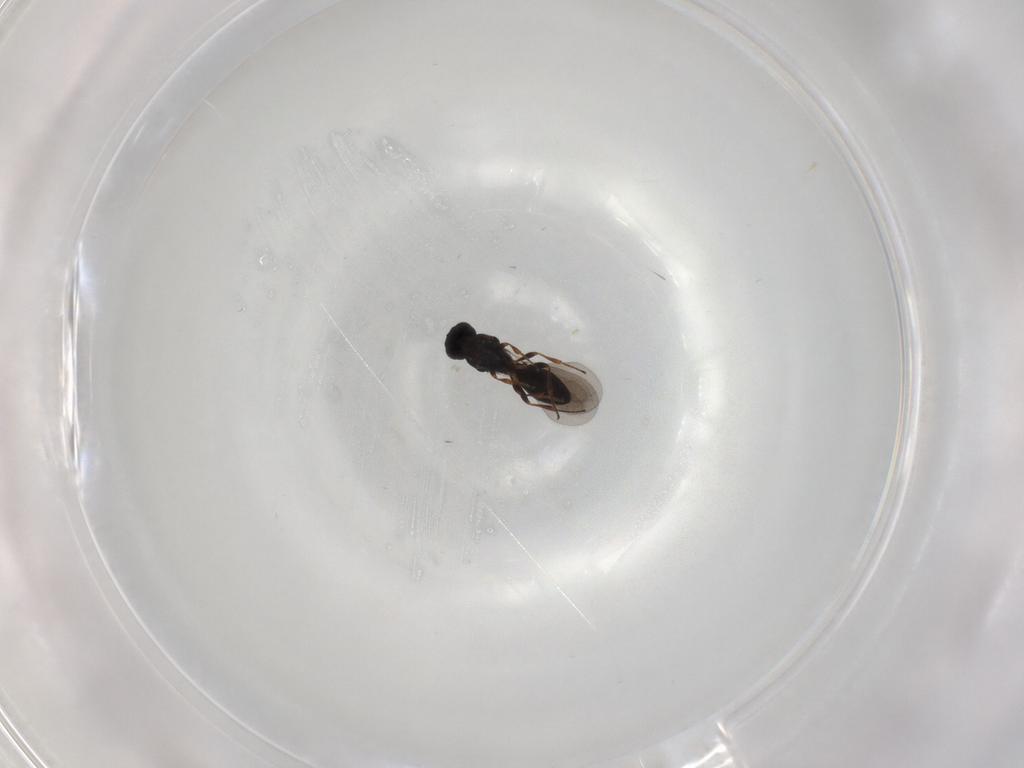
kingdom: Animalia
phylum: Arthropoda
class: Insecta
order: Hymenoptera
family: Platygastridae
